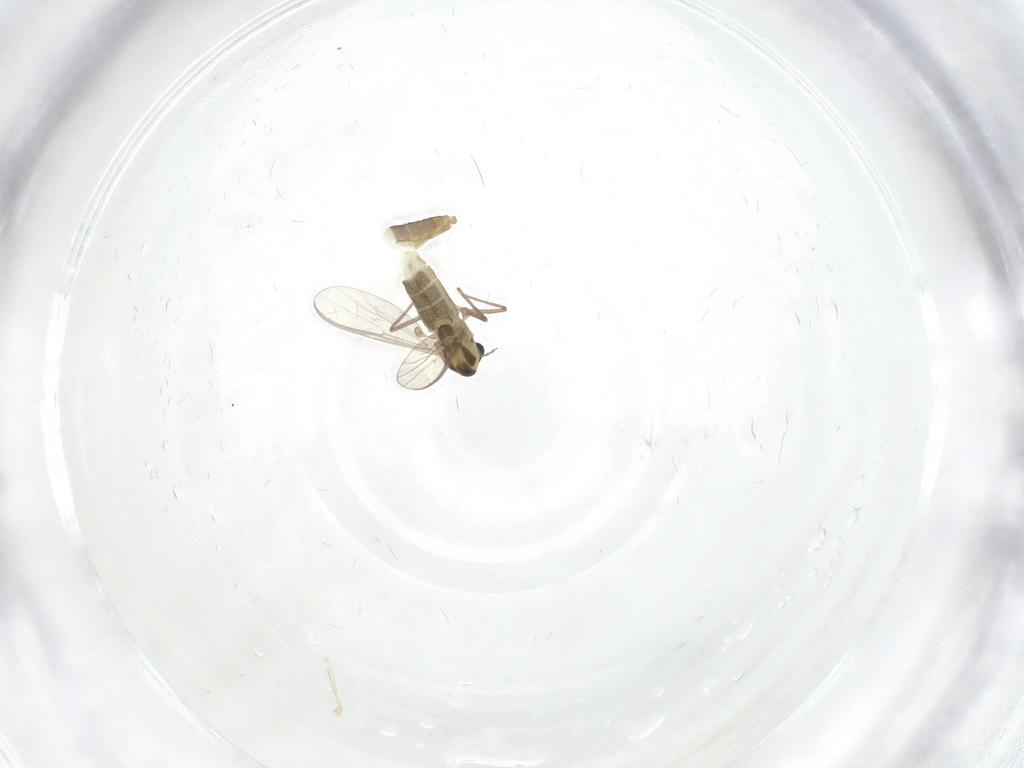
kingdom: Animalia
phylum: Arthropoda
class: Insecta
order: Diptera
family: Chironomidae
